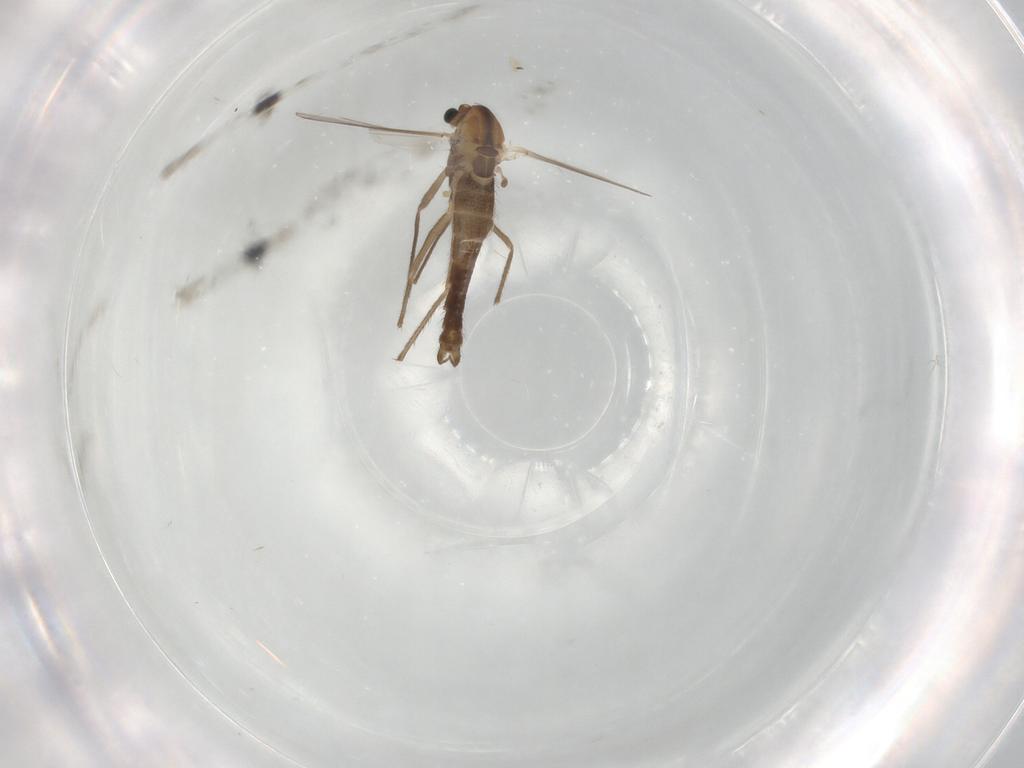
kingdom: Animalia
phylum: Arthropoda
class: Insecta
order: Diptera
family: Chironomidae
